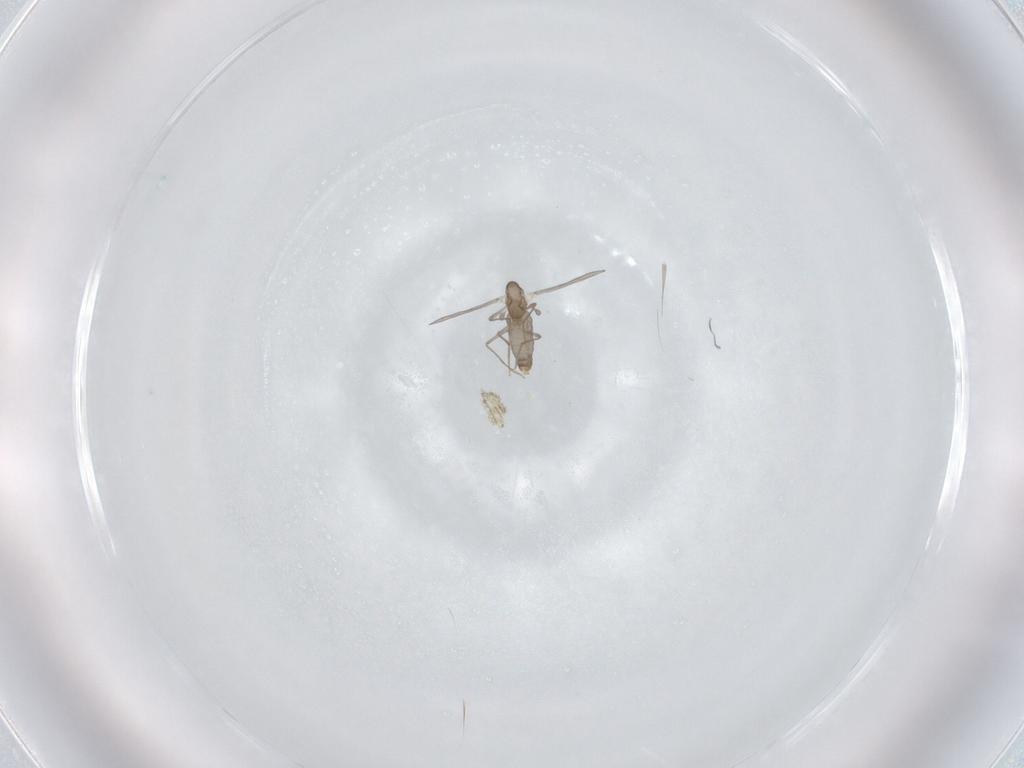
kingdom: Animalia
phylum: Arthropoda
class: Insecta
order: Diptera
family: Chironomidae
